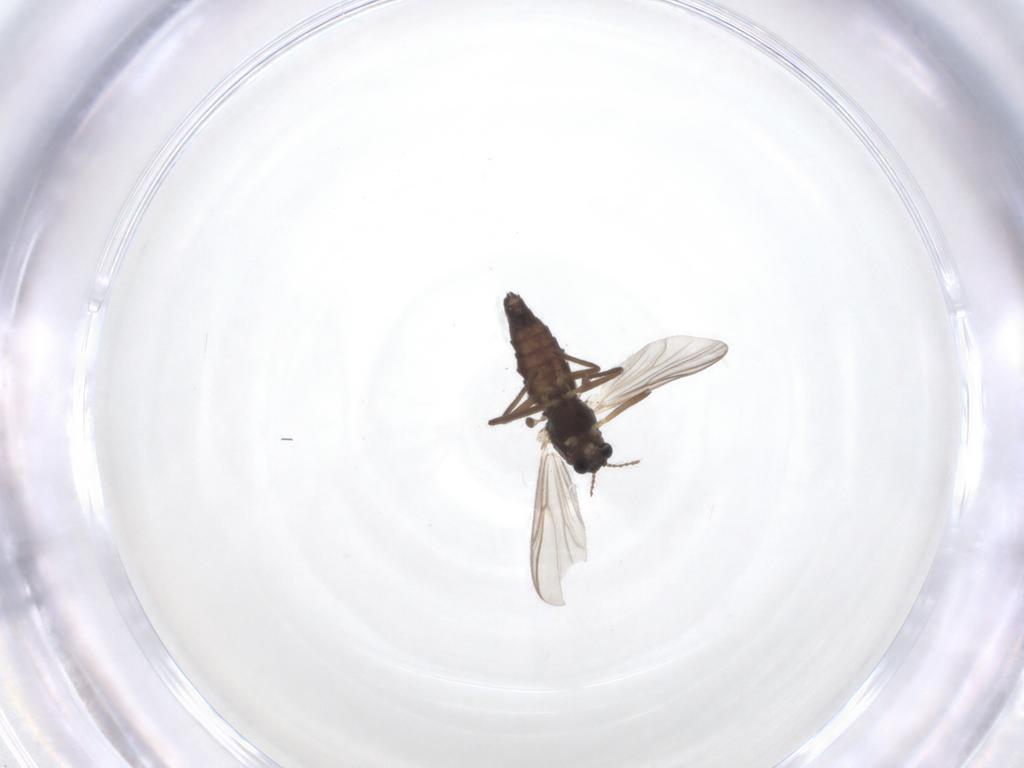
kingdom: Animalia
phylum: Arthropoda
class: Insecta
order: Diptera
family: Chironomidae
